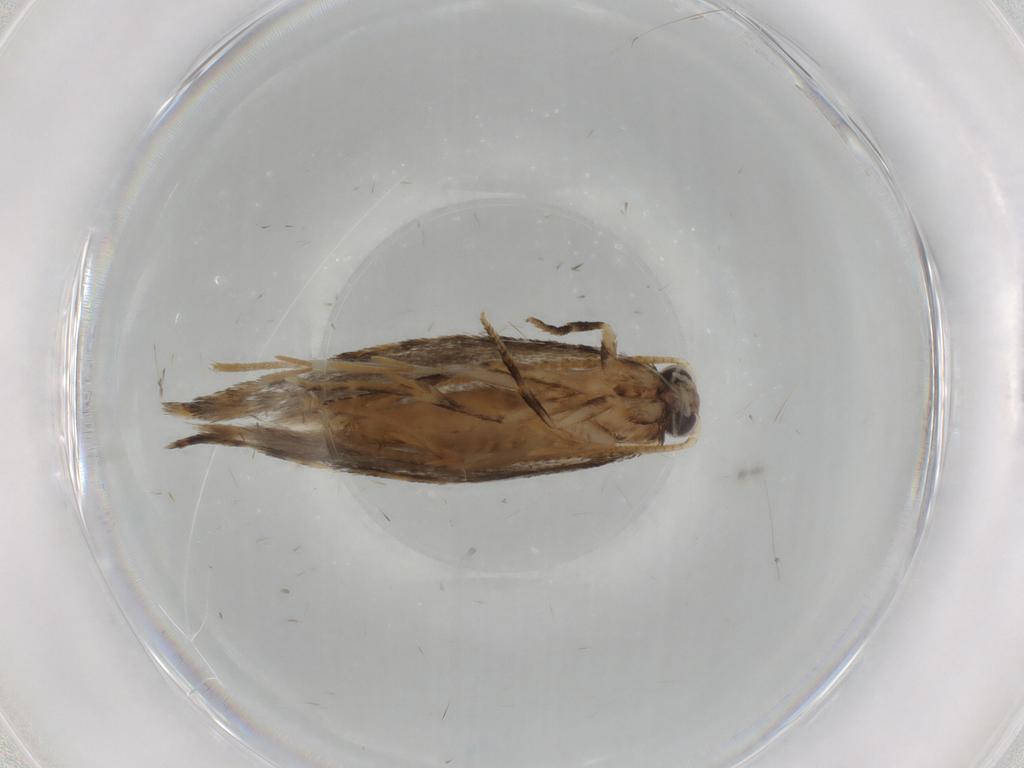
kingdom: Animalia
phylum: Arthropoda
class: Insecta
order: Lepidoptera
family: Tineidae
